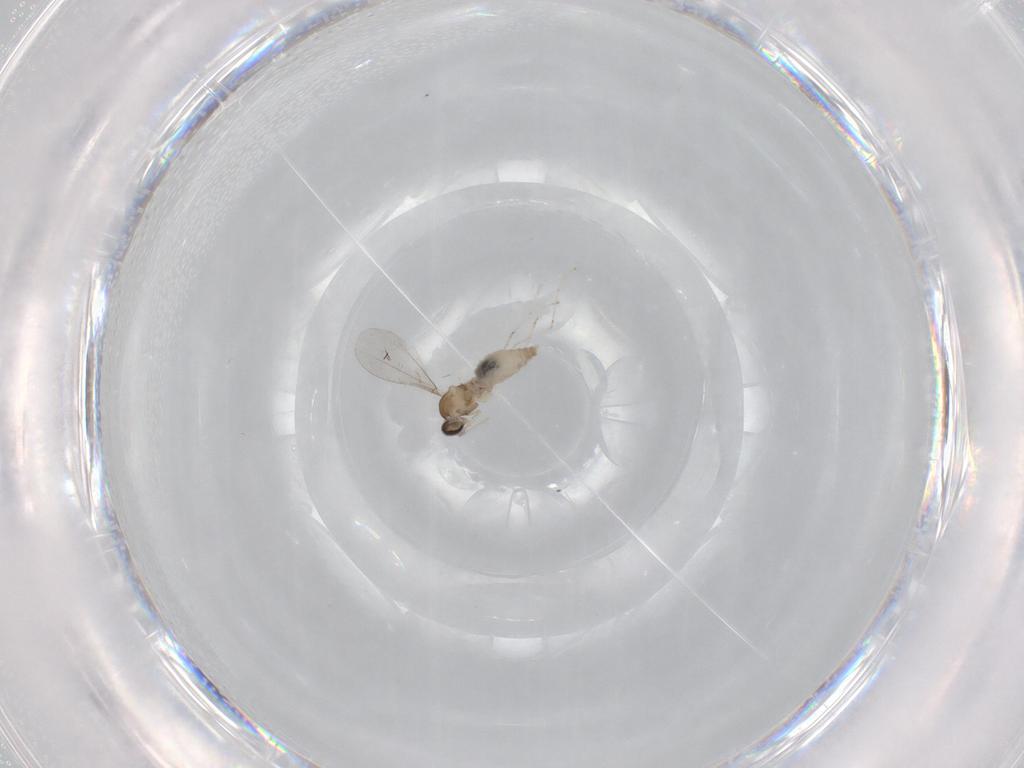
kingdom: Animalia
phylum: Arthropoda
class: Insecta
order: Diptera
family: Cecidomyiidae
